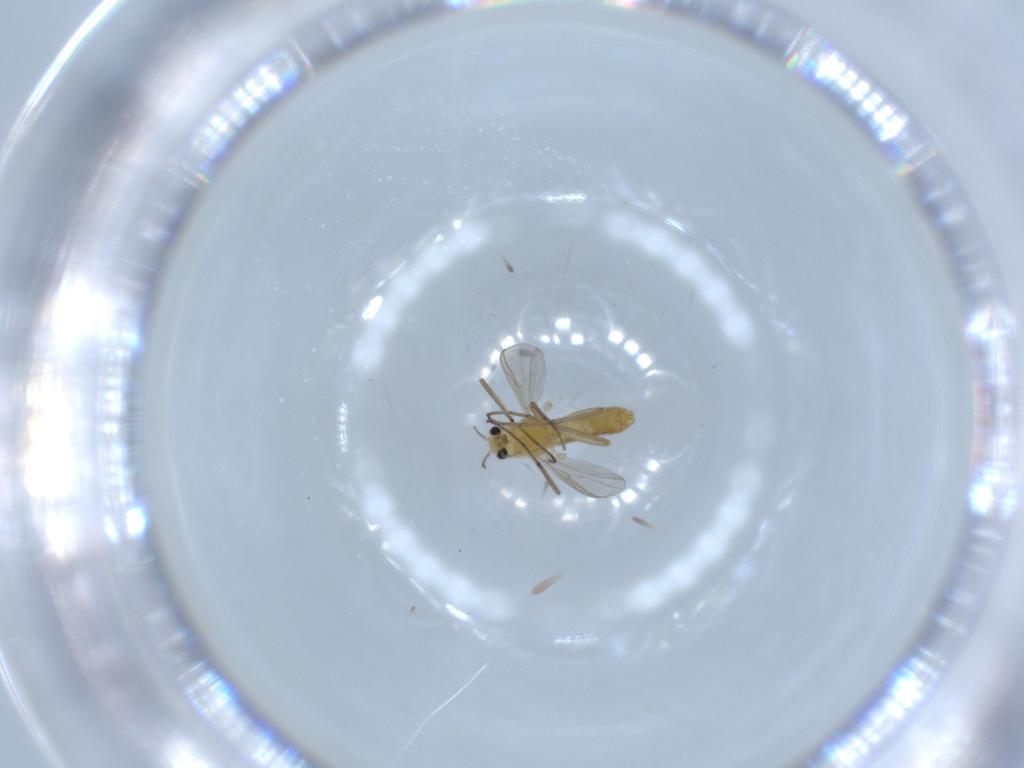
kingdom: Animalia
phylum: Arthropoda
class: Insecta
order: Diptera
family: Chironomidae
